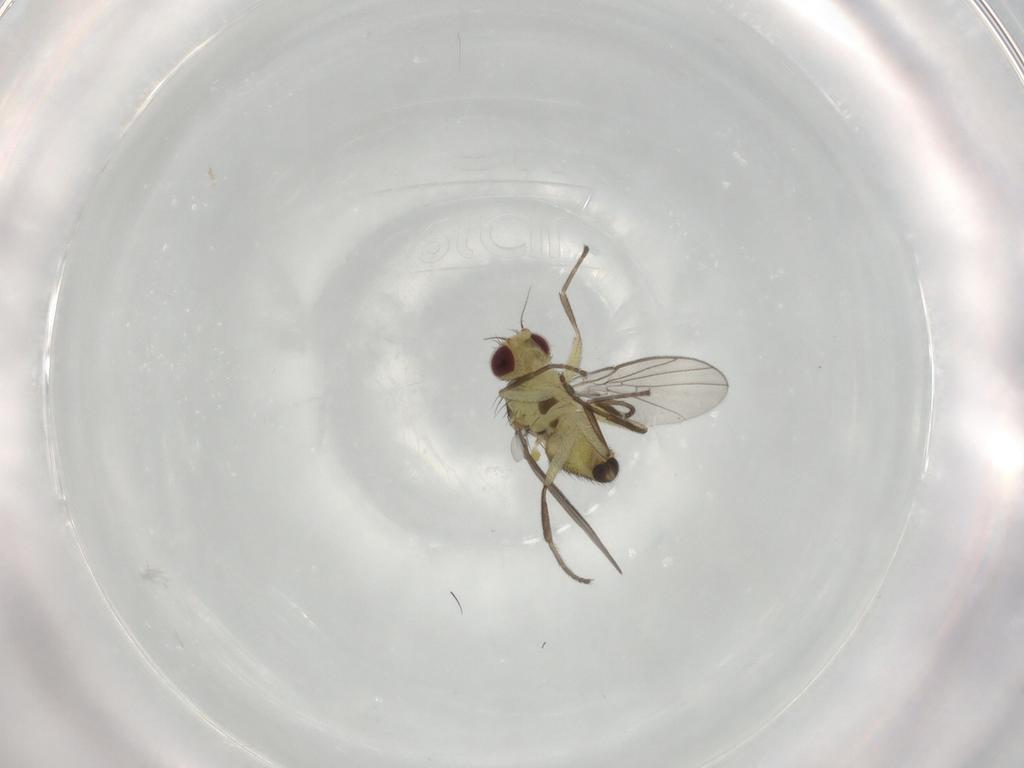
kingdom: Animalia
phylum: Arthropoda
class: Insecta
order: Diptera
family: Agromyzidae
